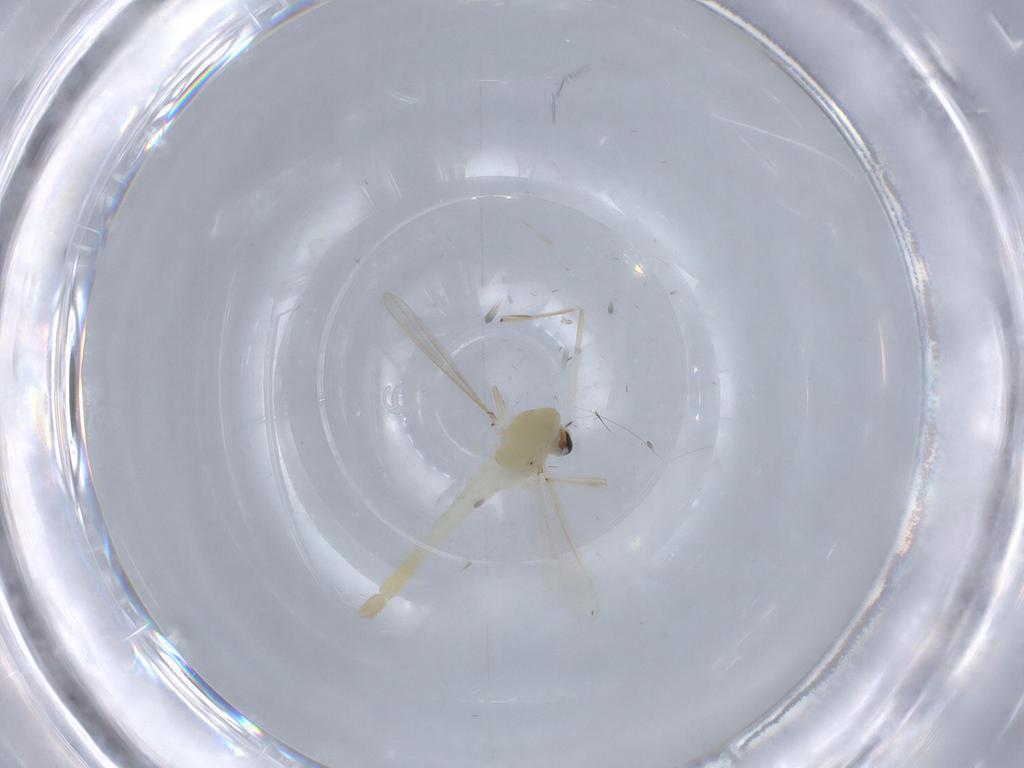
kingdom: Animalia
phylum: Arthropoda
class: Insecta
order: Diptera
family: Chironomidae
